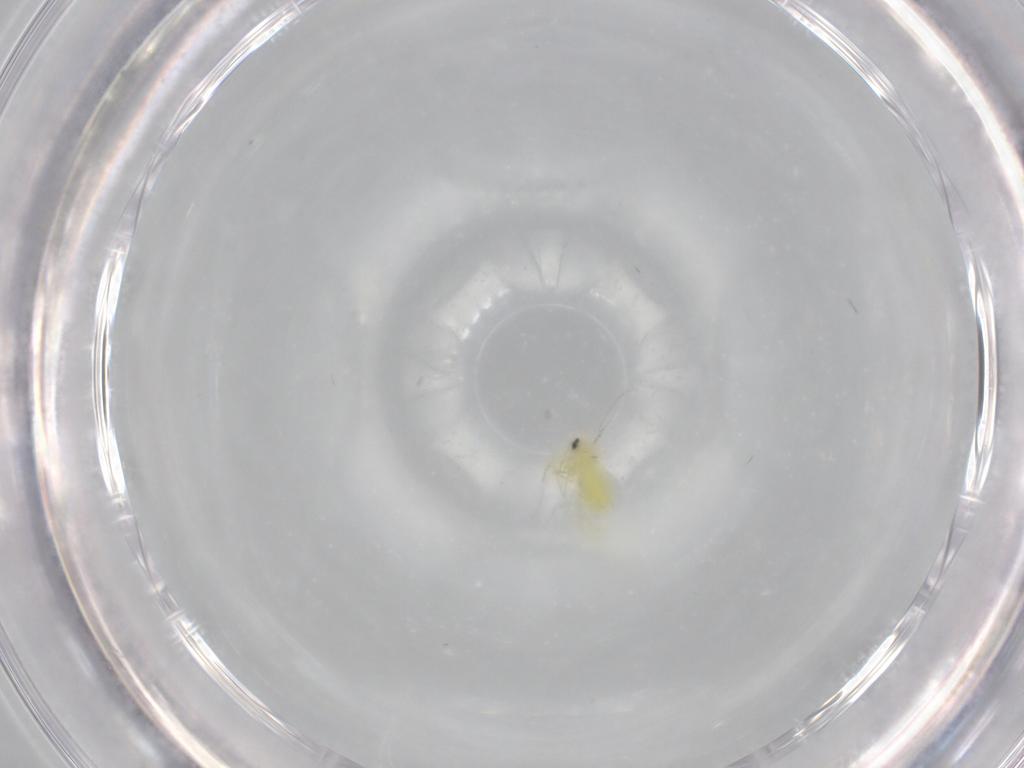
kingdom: Animalia
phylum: Arthropoda
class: Insecta
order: Hemiptera
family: Aleyrodidae
